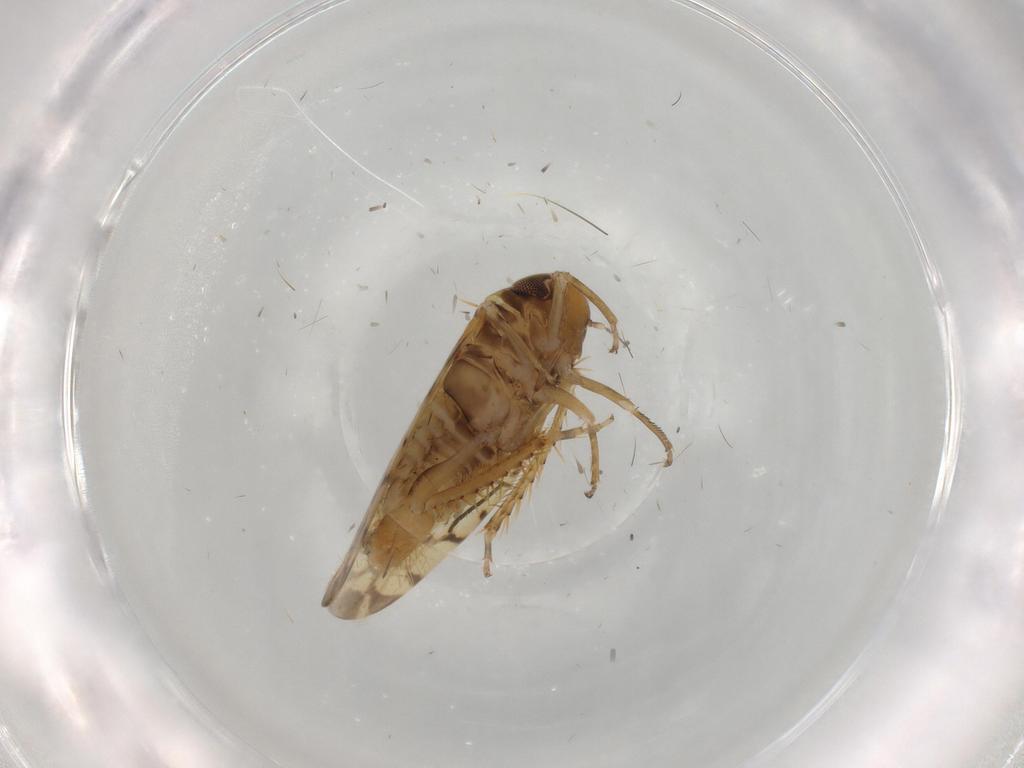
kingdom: Animalia
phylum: Arthropoda
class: Insecta
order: Hemiptera
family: Cicadellidae
